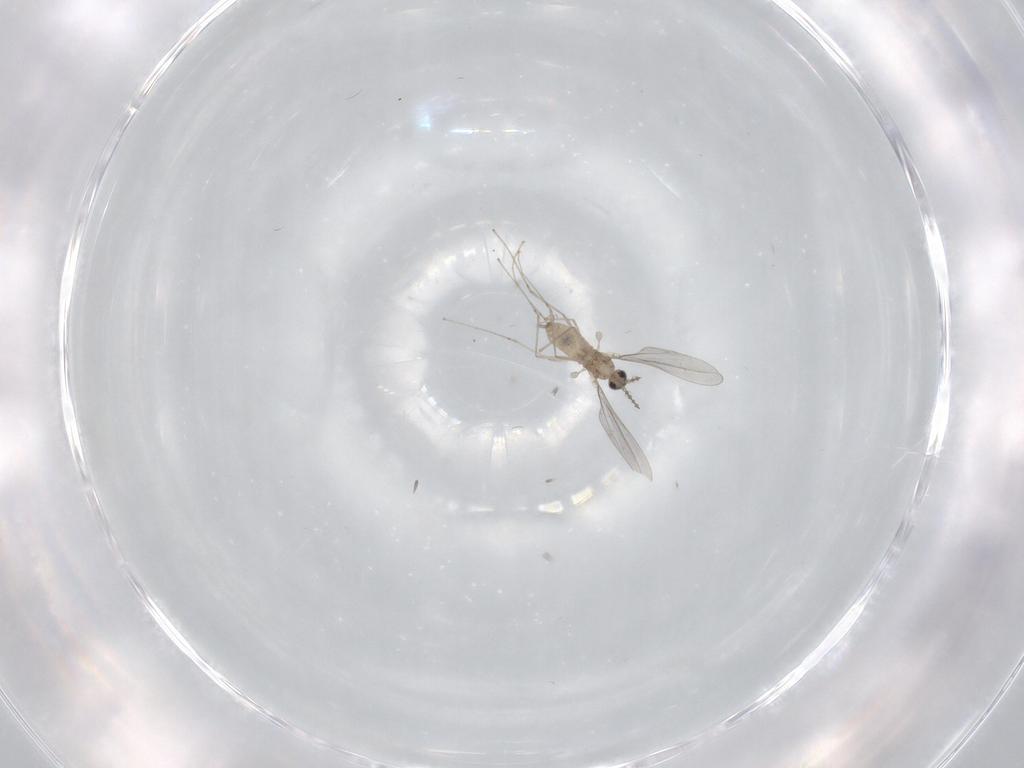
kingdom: Animalia
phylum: Arthropoda
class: Insecta
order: Diptera
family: Cecidomyiidae
